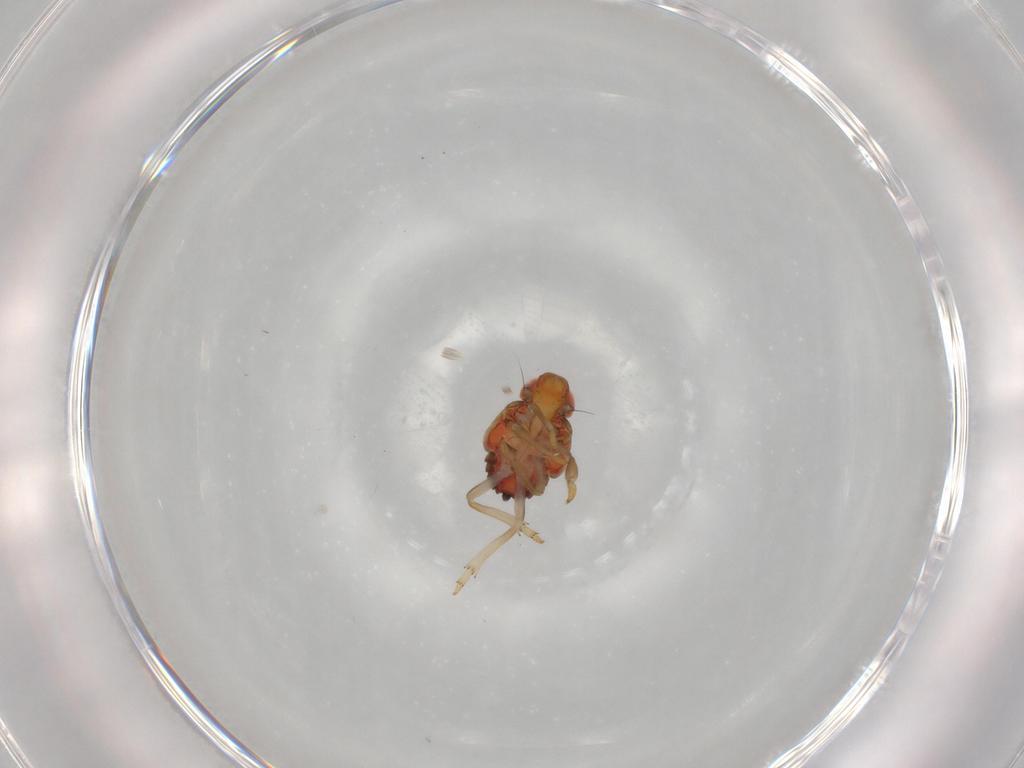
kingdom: Animalia
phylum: Arthropoda
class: Insecta
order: Hemiptera
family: Issidae
